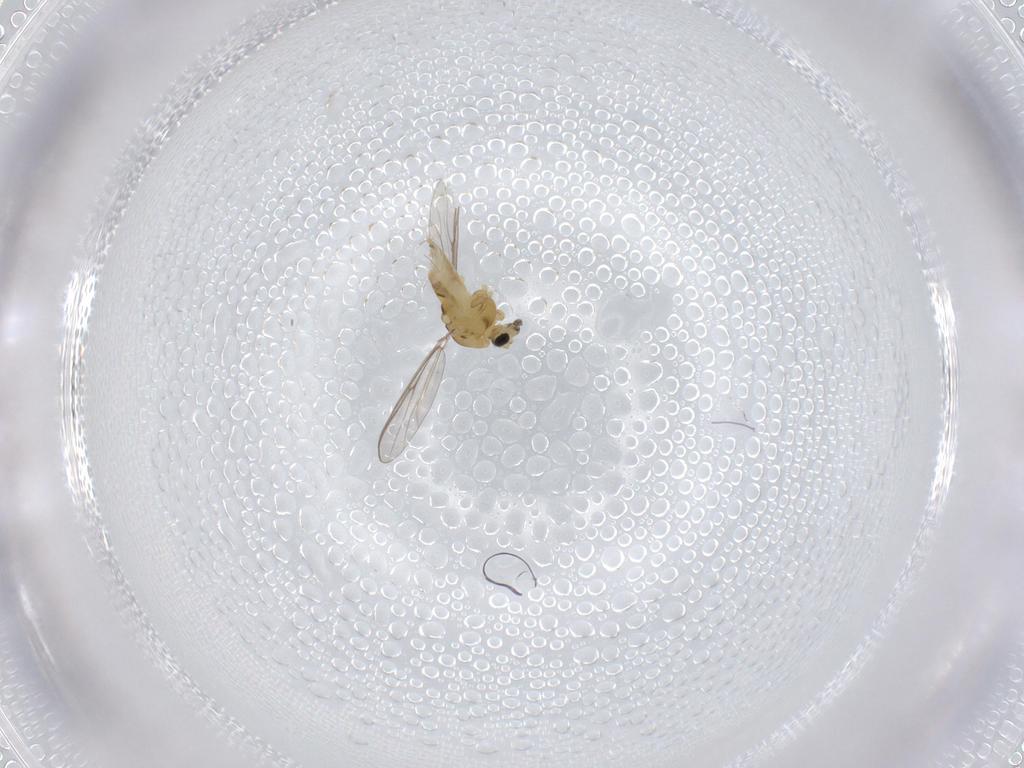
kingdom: Animalia
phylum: Arthropoda
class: Insecta
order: Diptera
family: Chironomidae
